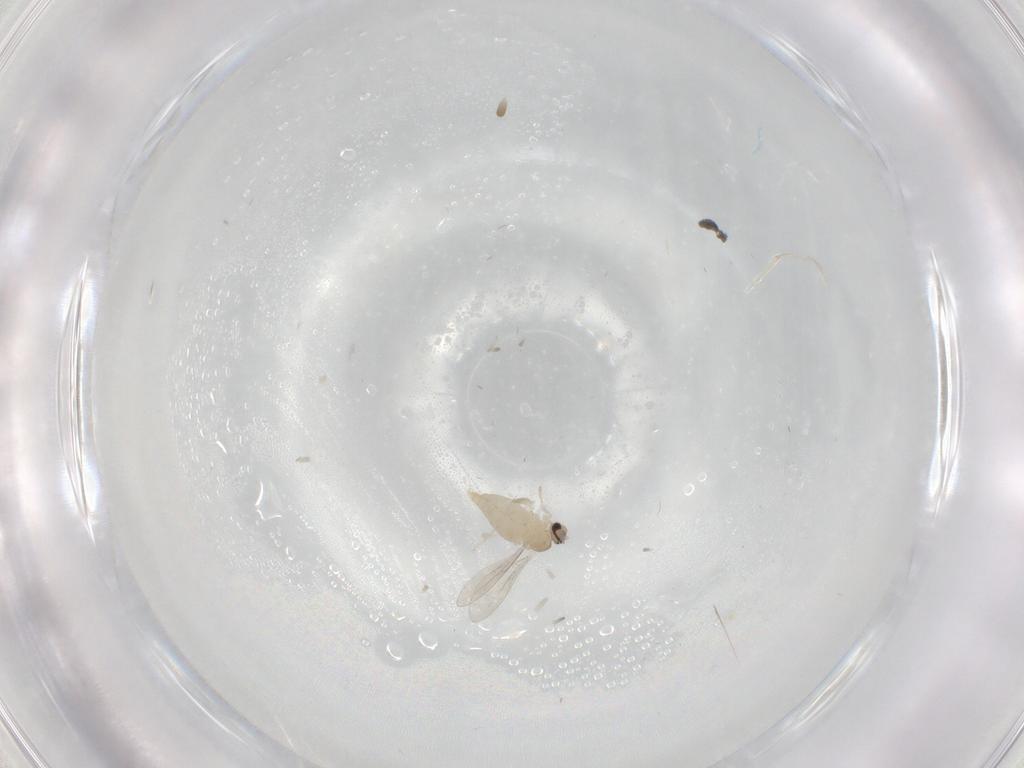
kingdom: Animalia
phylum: Arthropoda
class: Insecta
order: Diptera
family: Cecidomyiidae
